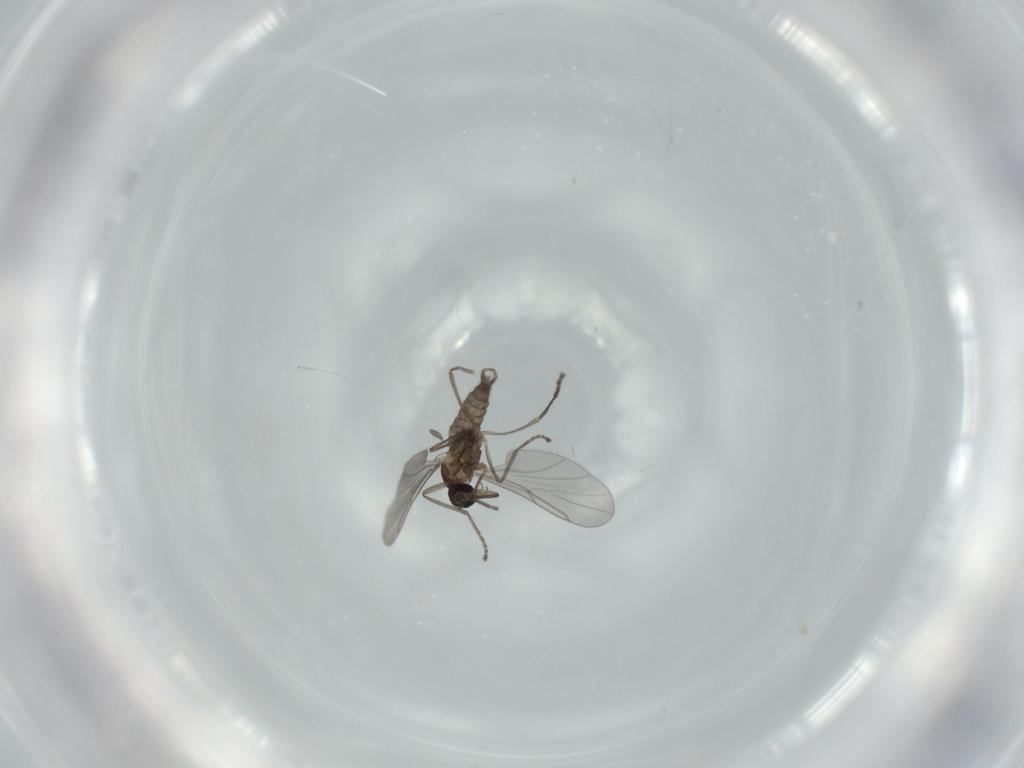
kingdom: Animalia
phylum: Arthropoda
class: Insecta
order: Diptera
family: Cecidomyiidae
